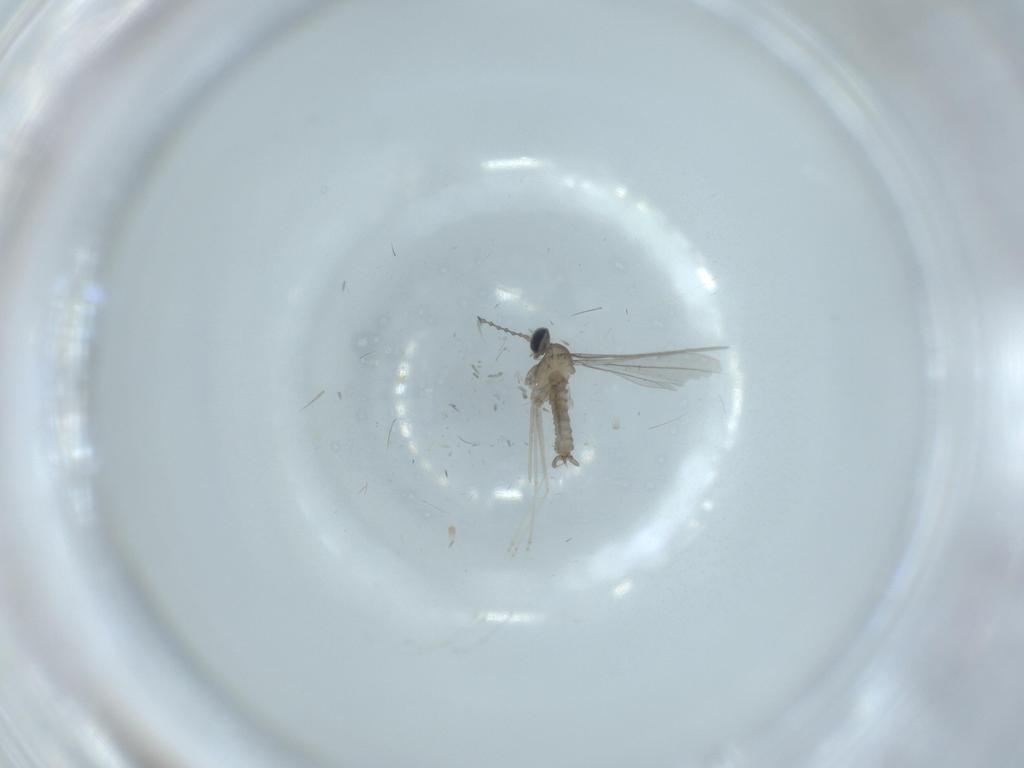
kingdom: Animalia
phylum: Arthropoda
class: Insecta
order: Diptera
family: Cecidomyiidae
